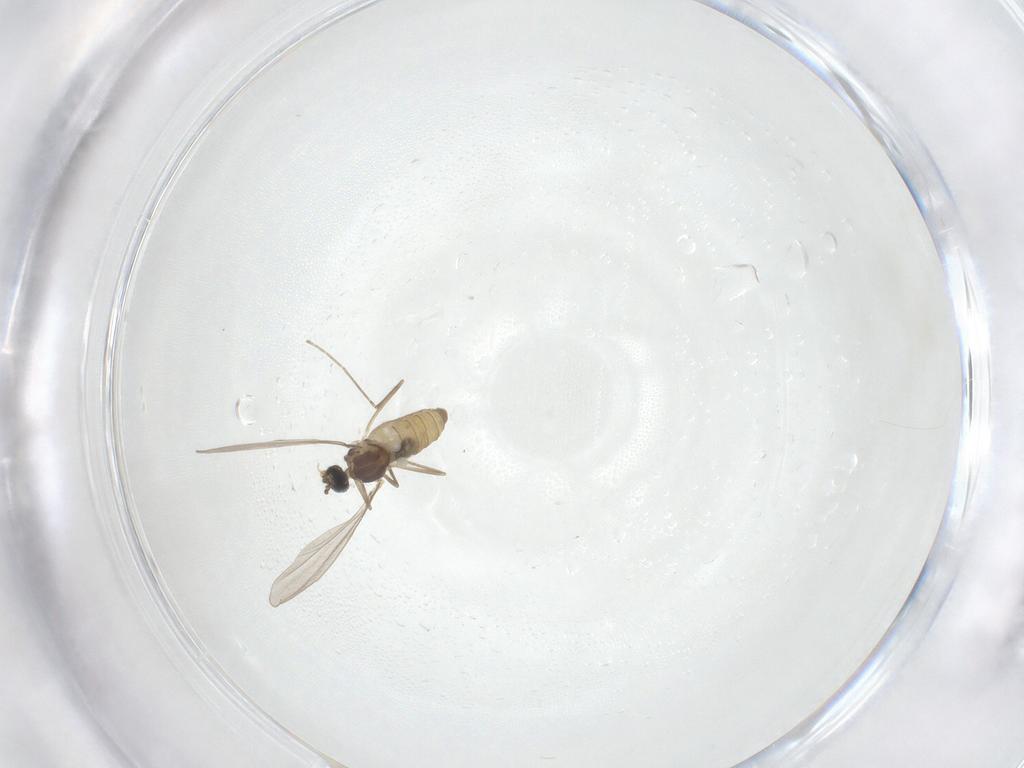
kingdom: Animalia
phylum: Arthropoda
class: Insecta
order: Diptera
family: Cecidomyiidae
